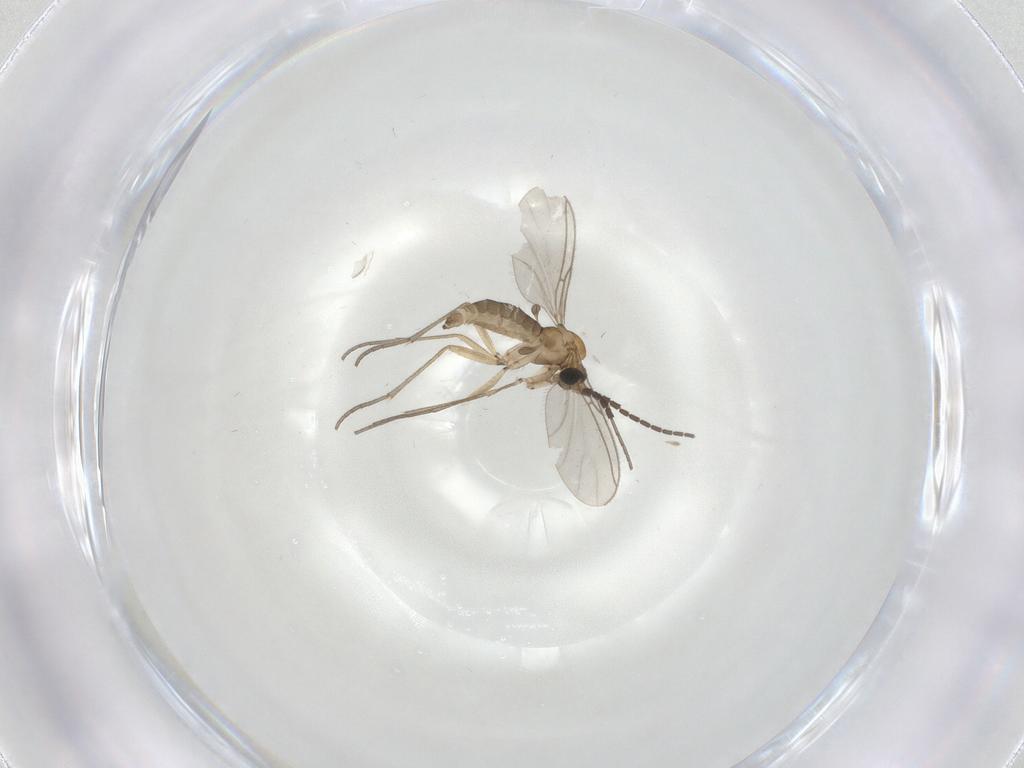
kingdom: Animalia
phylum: Arthropoda
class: Insecta
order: Diptera
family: Sciaridae
